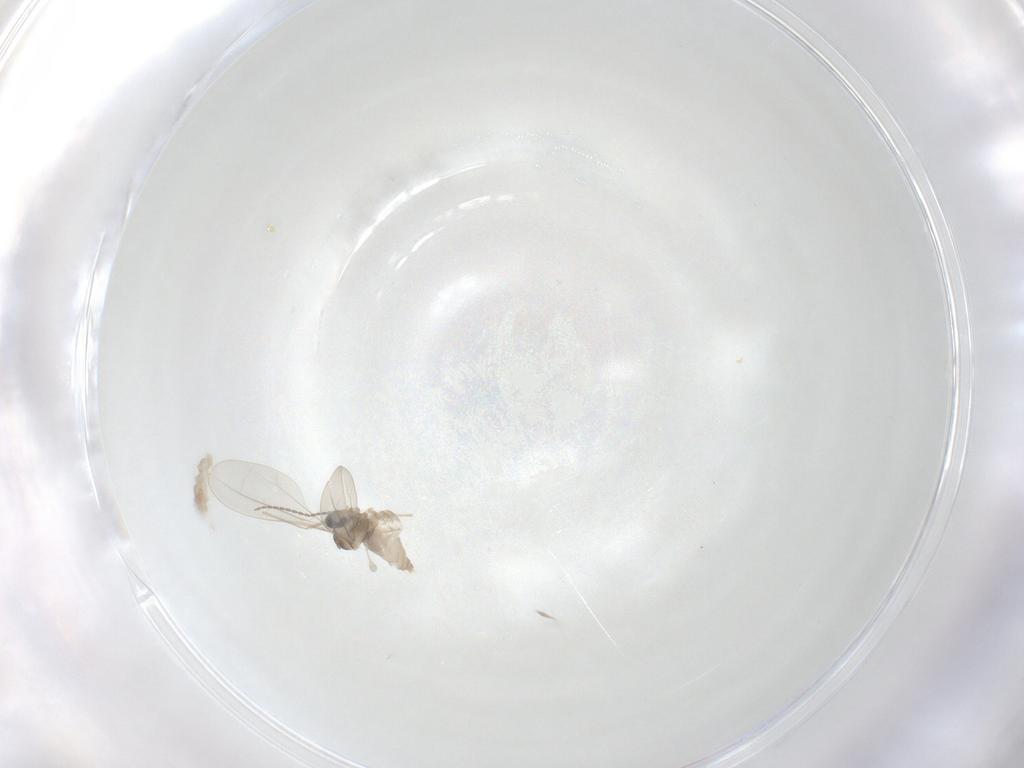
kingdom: Animalia
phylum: Arthropoda
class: Insecta
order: Diptera
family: Cecidomyiidae
